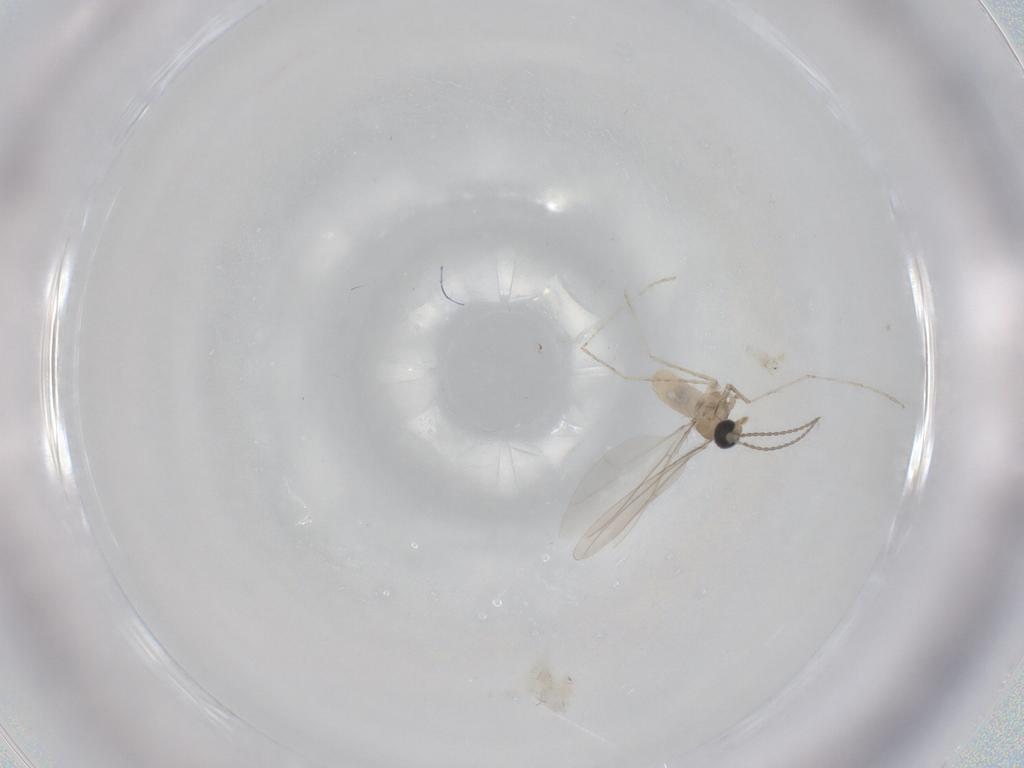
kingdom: Animalia
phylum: Arthropoda
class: Insecta
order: Diptera
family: Cecidomyiidae
